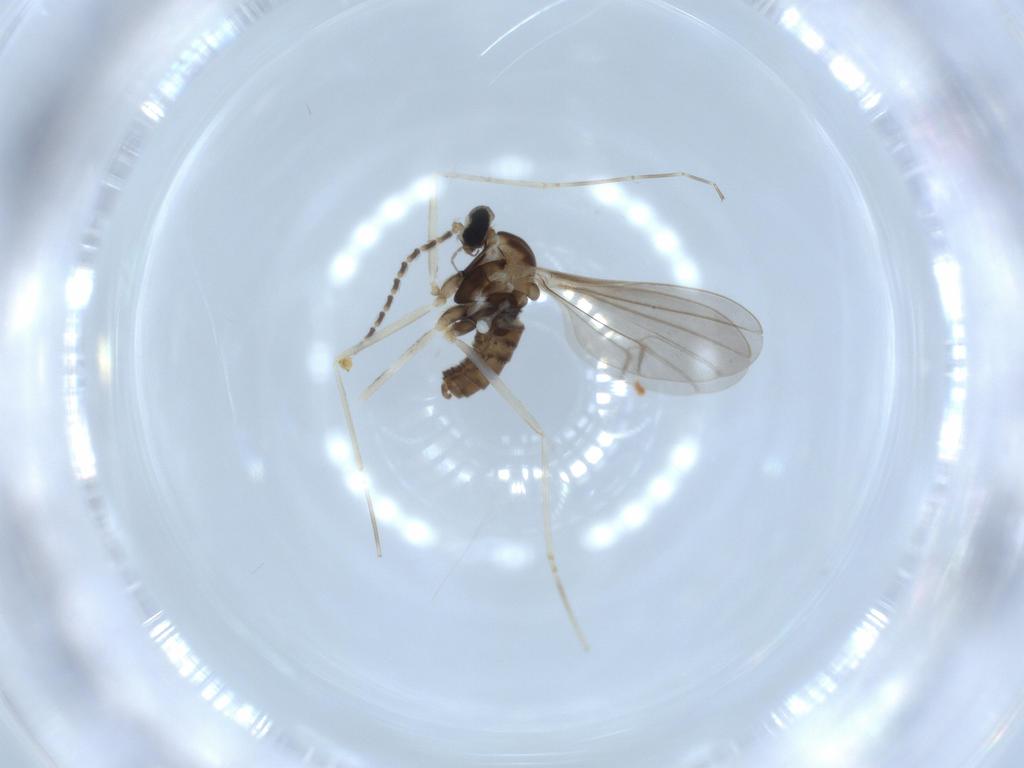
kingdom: Animalia
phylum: Arthropoda
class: Insecta
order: Diptera
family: Cecidomyiidae
